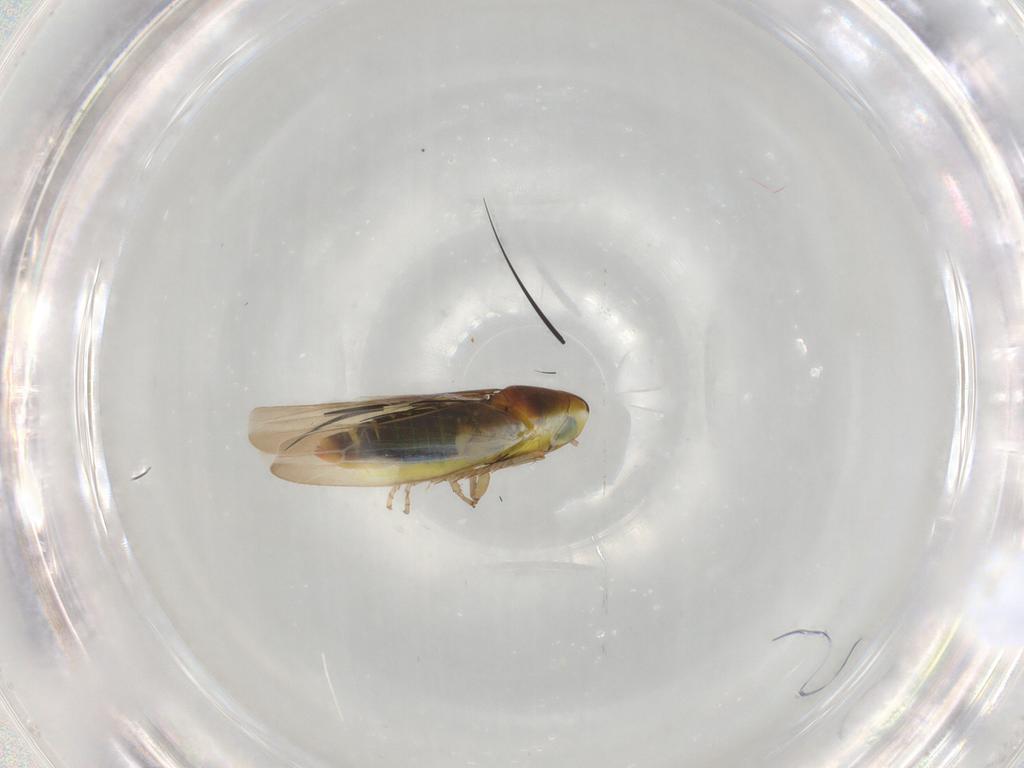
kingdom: Animalia
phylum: Arthropoda
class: Insecta
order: Hemiptera
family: Cicadellidae
